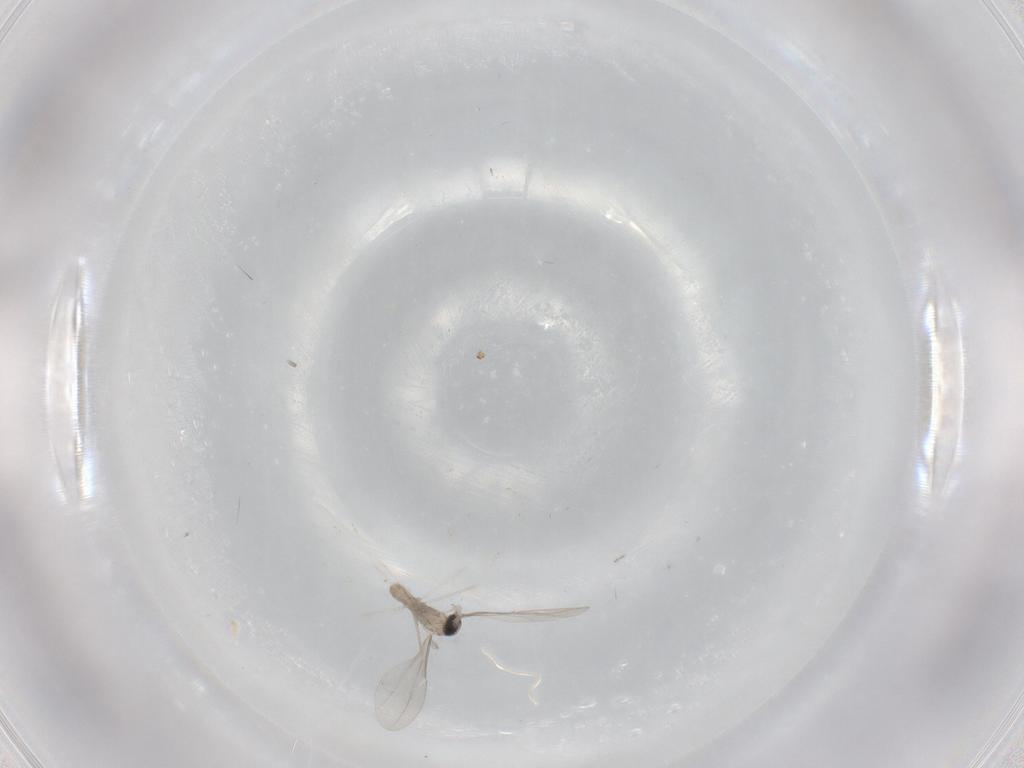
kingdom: Animalia
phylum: Arthropoda
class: Insecta
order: Diptera
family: Cecidomyiidae
